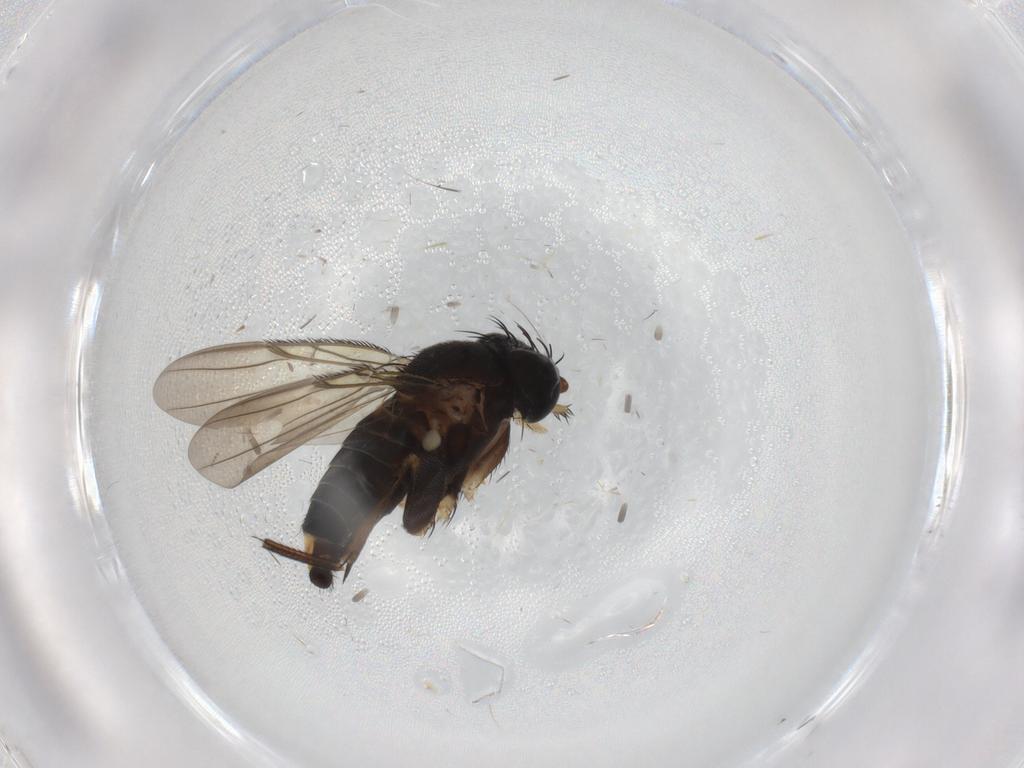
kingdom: Animalia
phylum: Arthropoda
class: Insecta
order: Diptera
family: Phoridae
